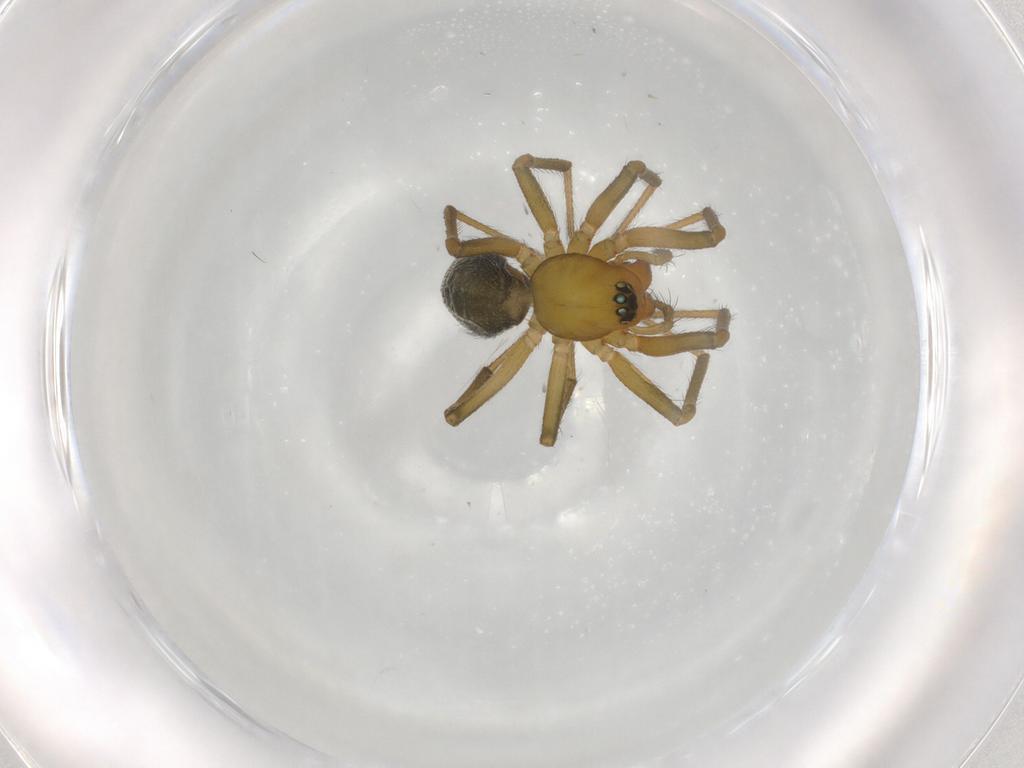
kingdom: Animalia
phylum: Arthropoda
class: Arachnida
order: Araneae
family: Linyphiidae
